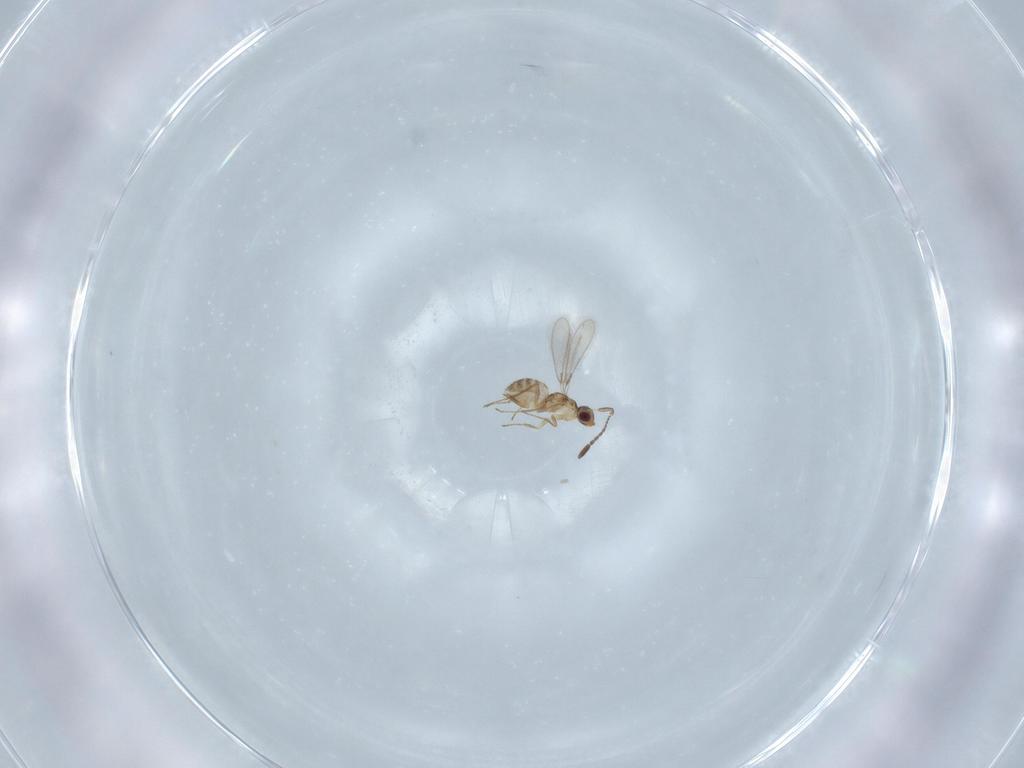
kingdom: Animalia
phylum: Arthropoda
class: Insecta
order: Hymenoptera
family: Mymaridae
